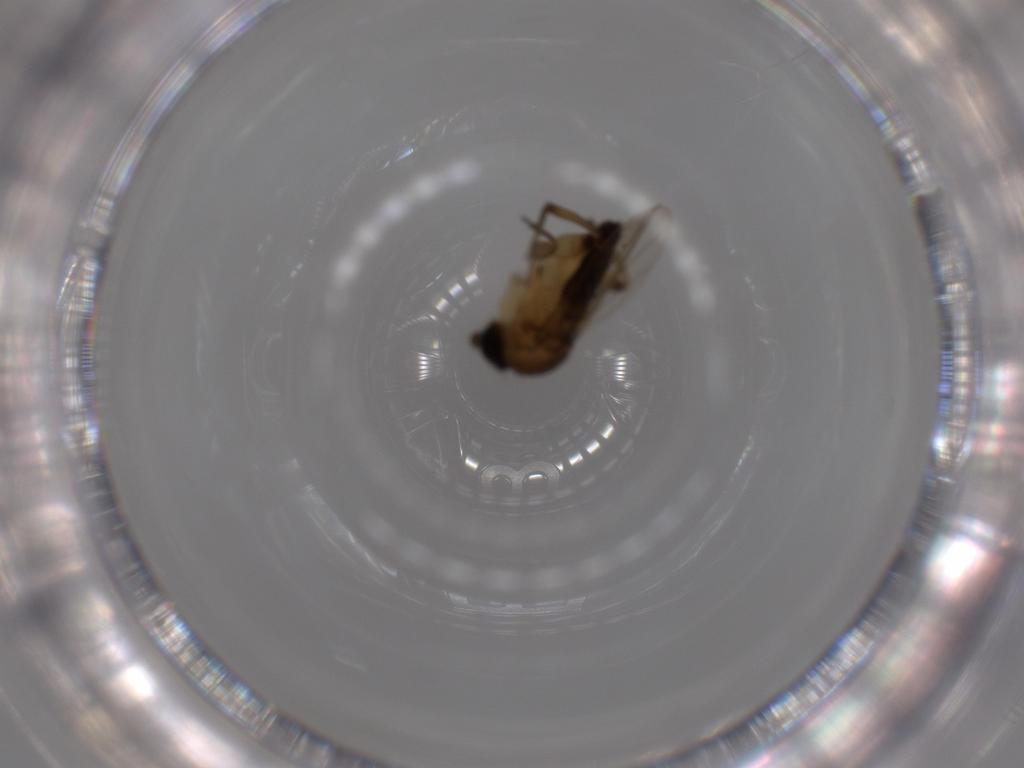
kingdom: Animalia
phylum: Arthropoda
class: Insecta
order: Diptera
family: Phoridae
